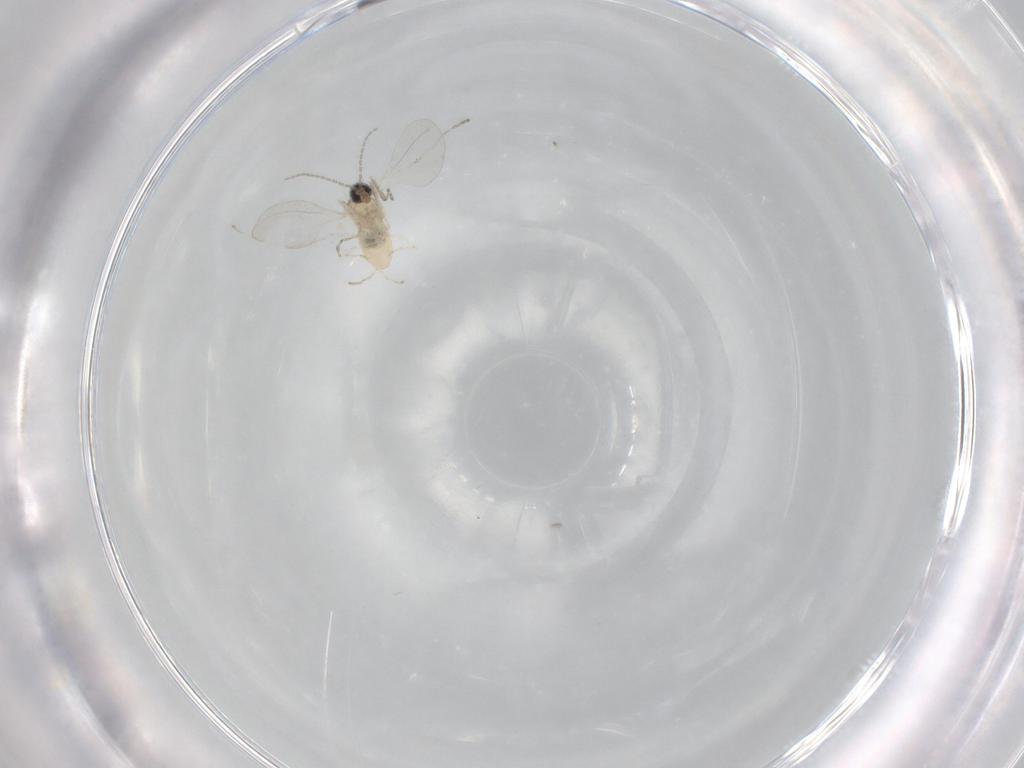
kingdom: Animalia
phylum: Arthropoda
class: Insecta
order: Diptera
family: Cecidomyiidae
